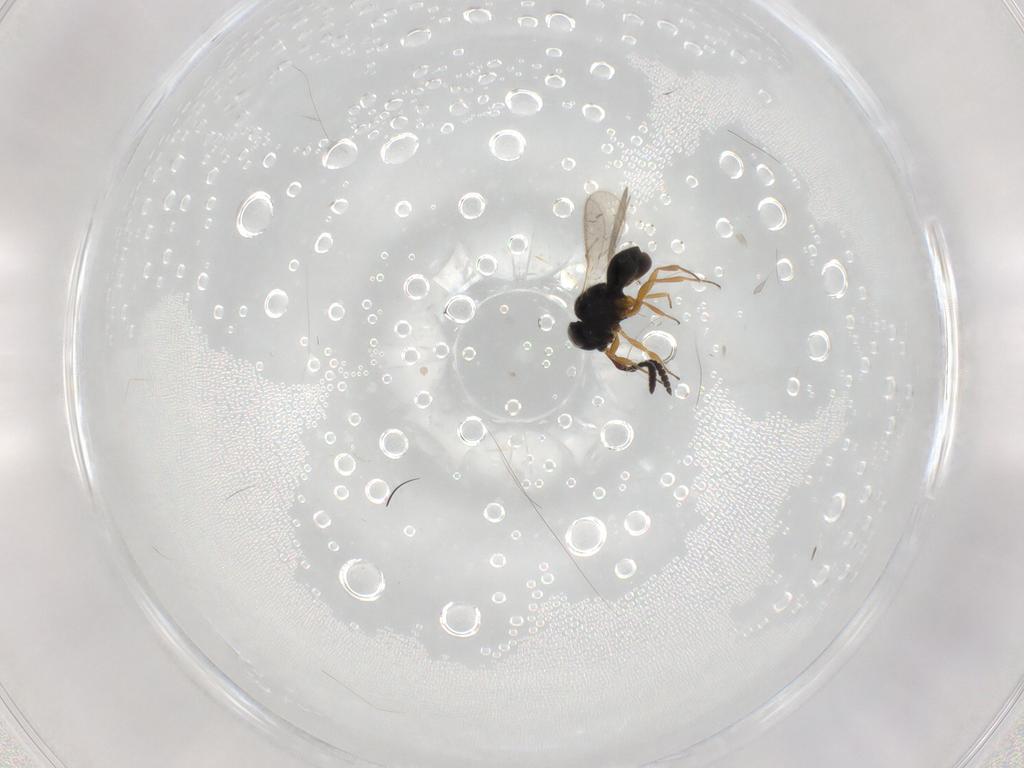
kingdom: Animalia
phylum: Arthropoda
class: Insecta
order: Hymenoptera
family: Scelionidae
